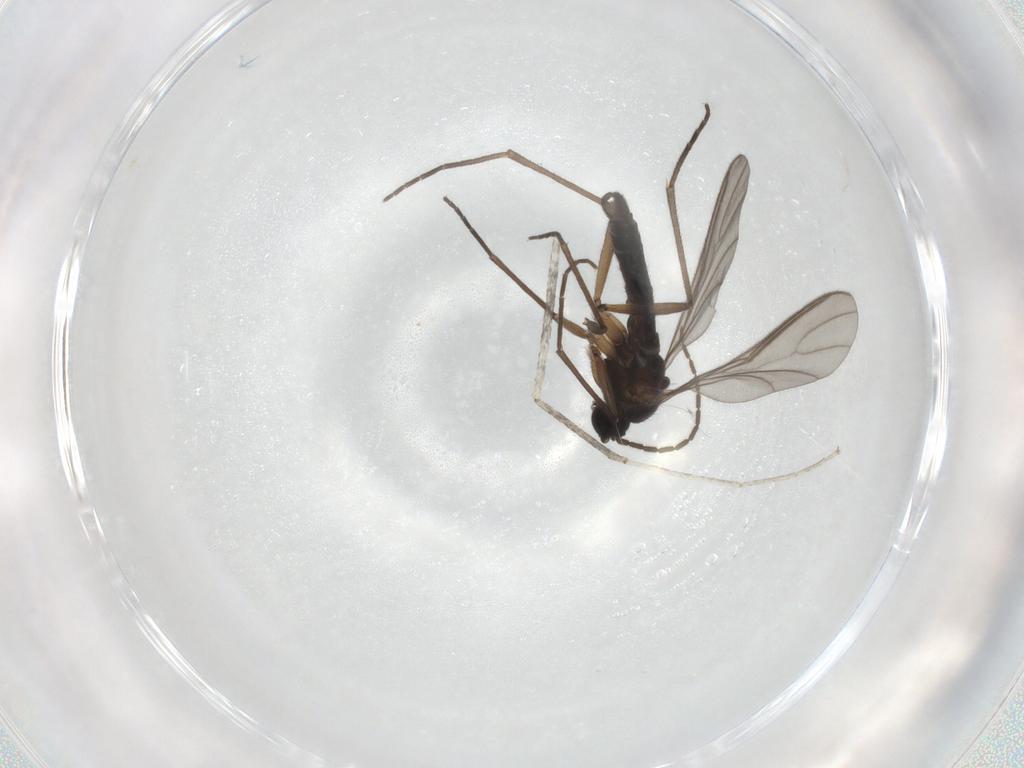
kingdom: Animalia
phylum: Arthropoda
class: Insecta
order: Diptera
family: Sciaridae
